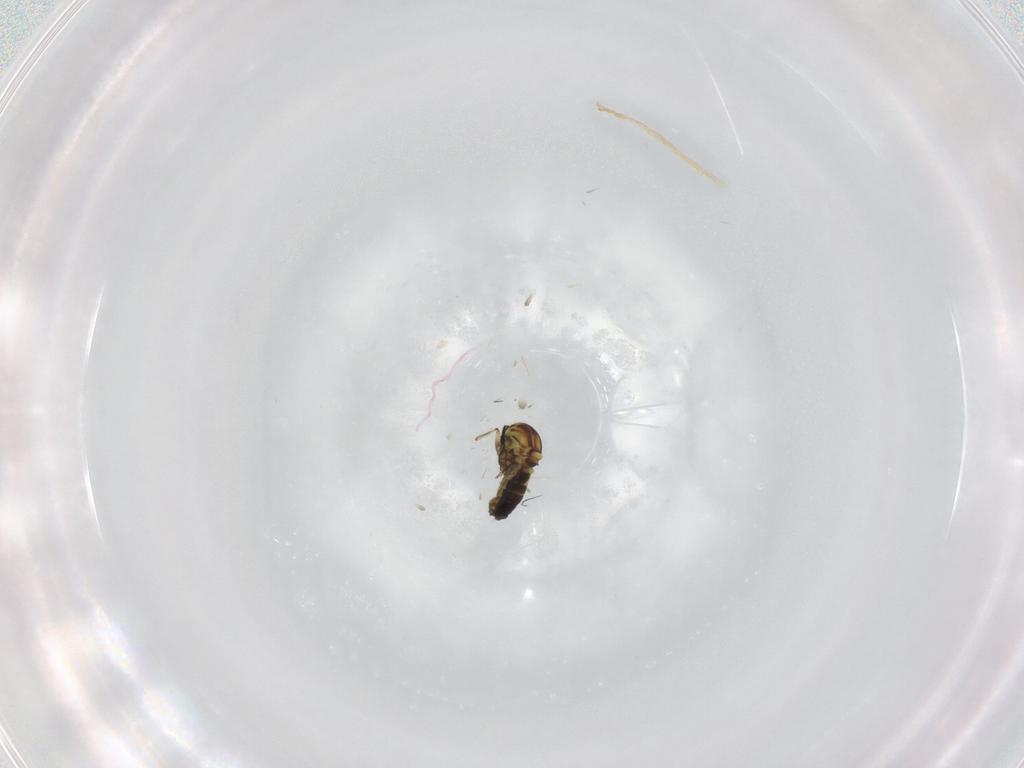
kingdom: Animalia
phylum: Arthropoda
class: Insecta
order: Diptera
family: Ceratopogonidae
